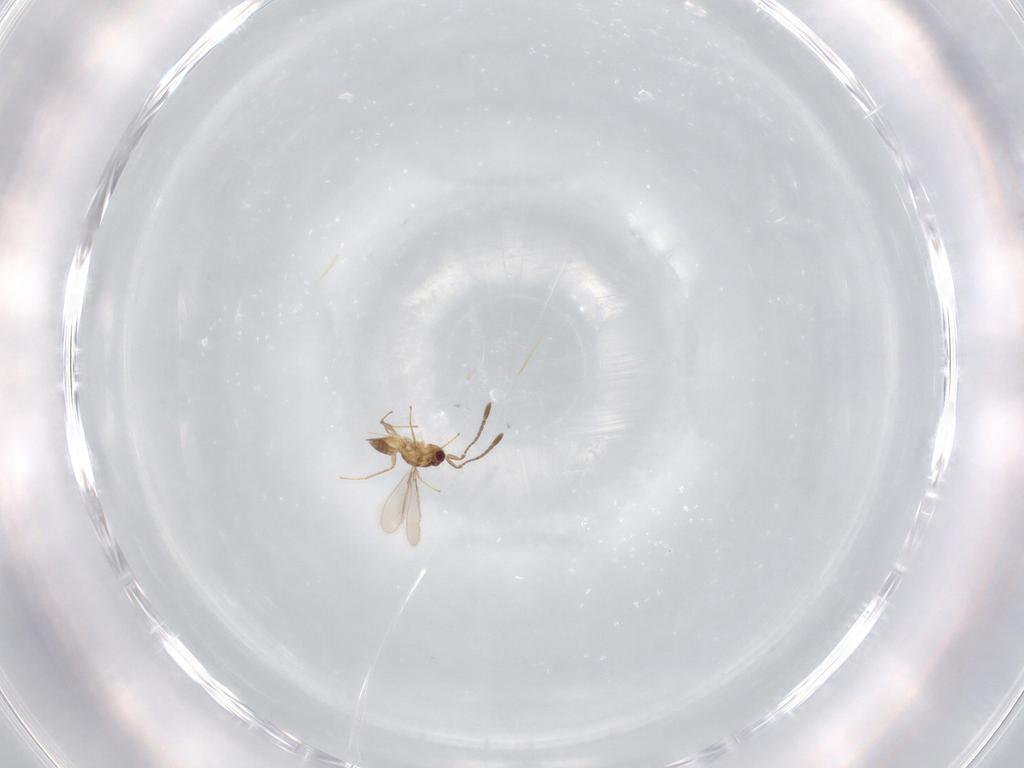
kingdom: Animalia
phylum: Arthropoda
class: Insecta
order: Hymenoptera
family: Mymaridae
